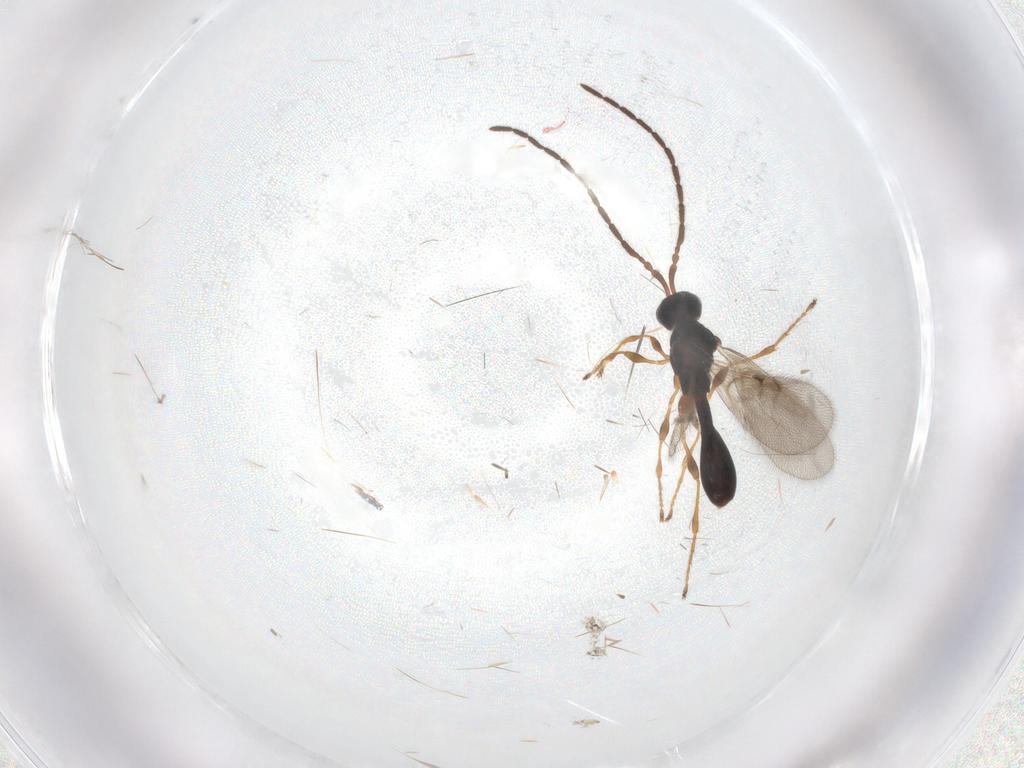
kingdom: Animalia
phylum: Arthropoda
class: Insecta
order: Hymenoptera
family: Diapriidae
